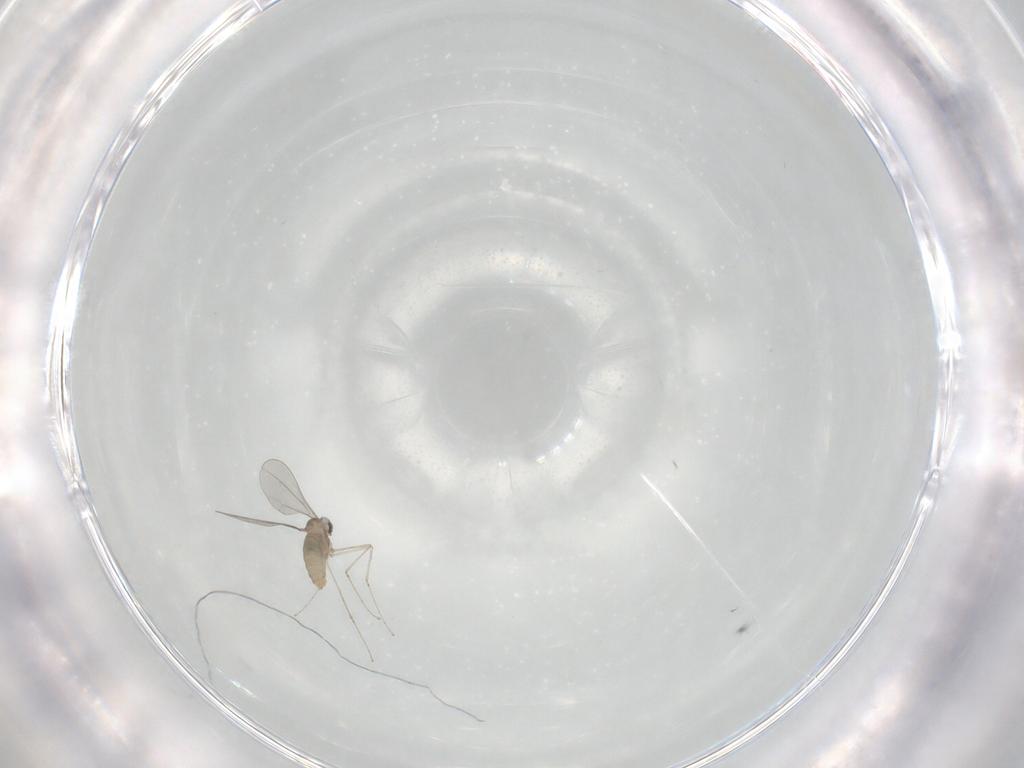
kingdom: Animalia
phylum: Arthropoda
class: Insecta
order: Diptera
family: Cecidomyiidae
